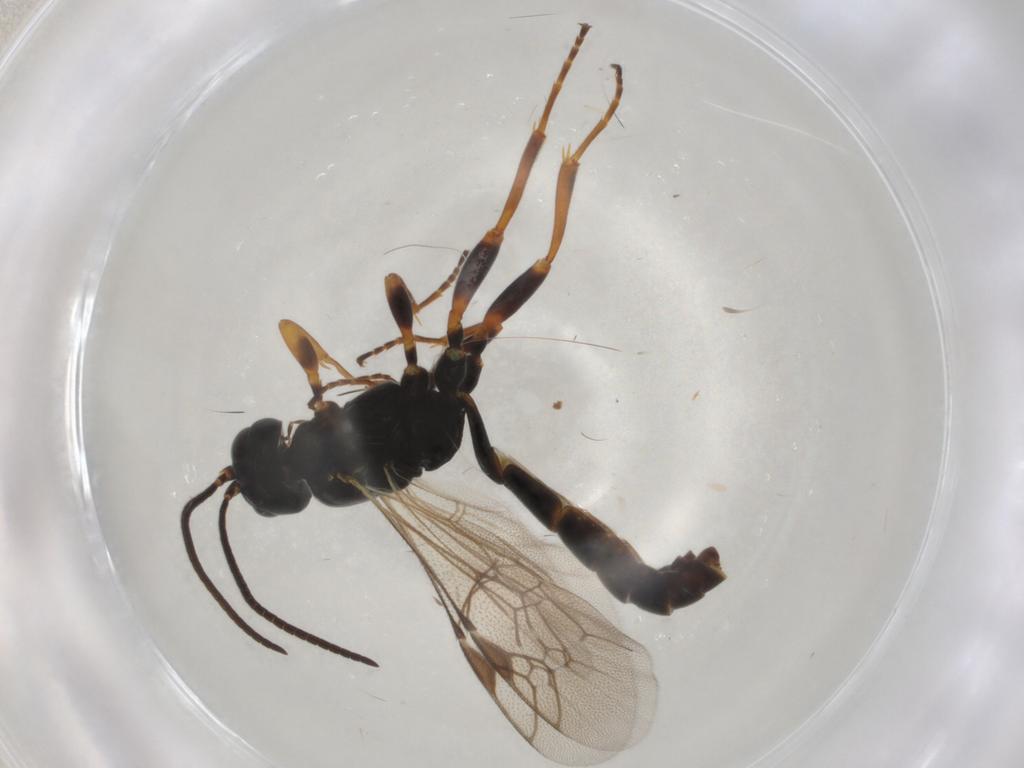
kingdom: Animalia
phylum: Arthropoda
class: Insecta
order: Hymenoptera
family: Ichneumonidae
